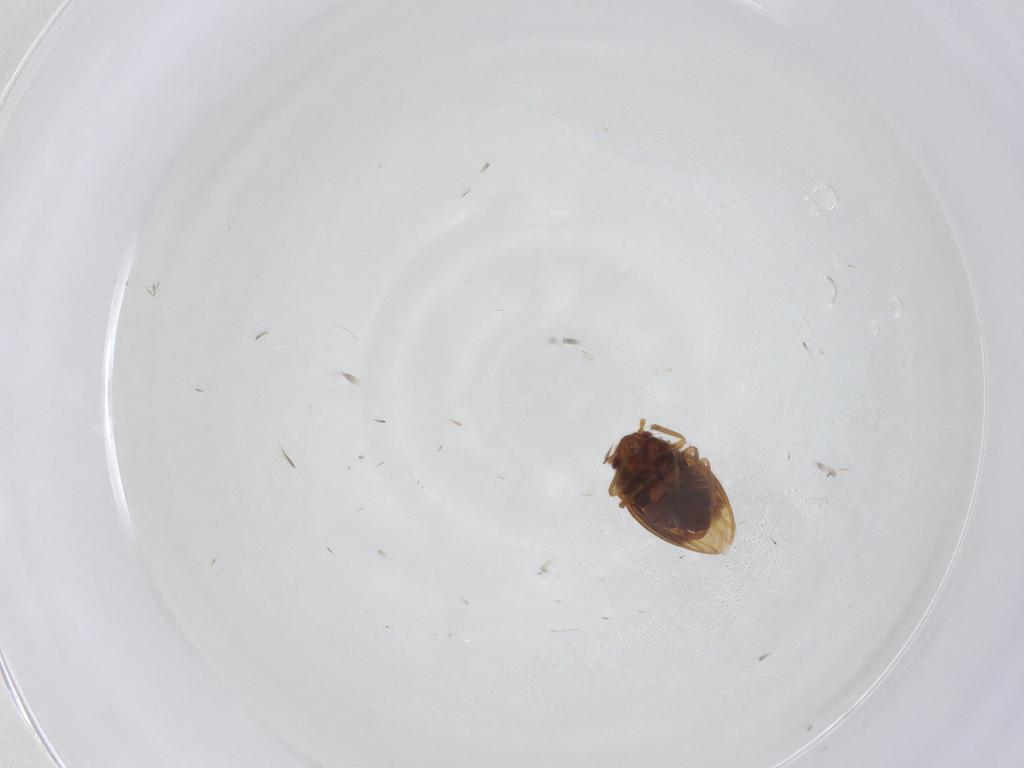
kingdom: Animalia
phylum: Arthropoda
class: Insecta
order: Hemiptera
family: Schizopteridae
